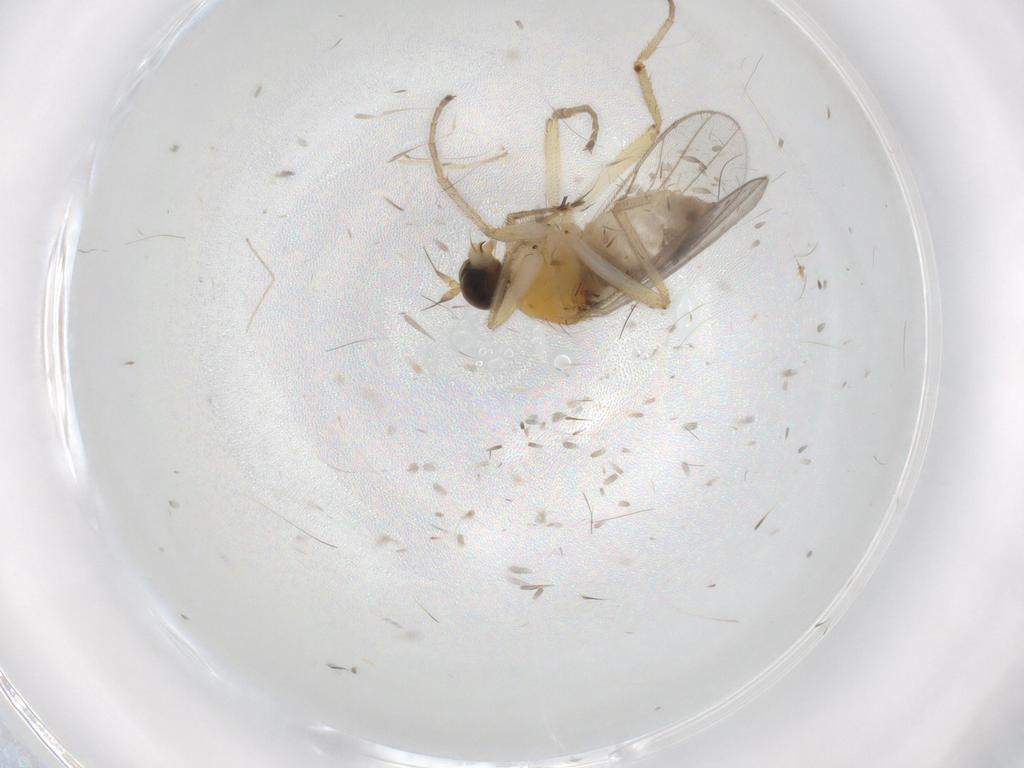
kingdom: Animalia
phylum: Arthropoda
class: Insecta
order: Diptera
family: Hybotidae
